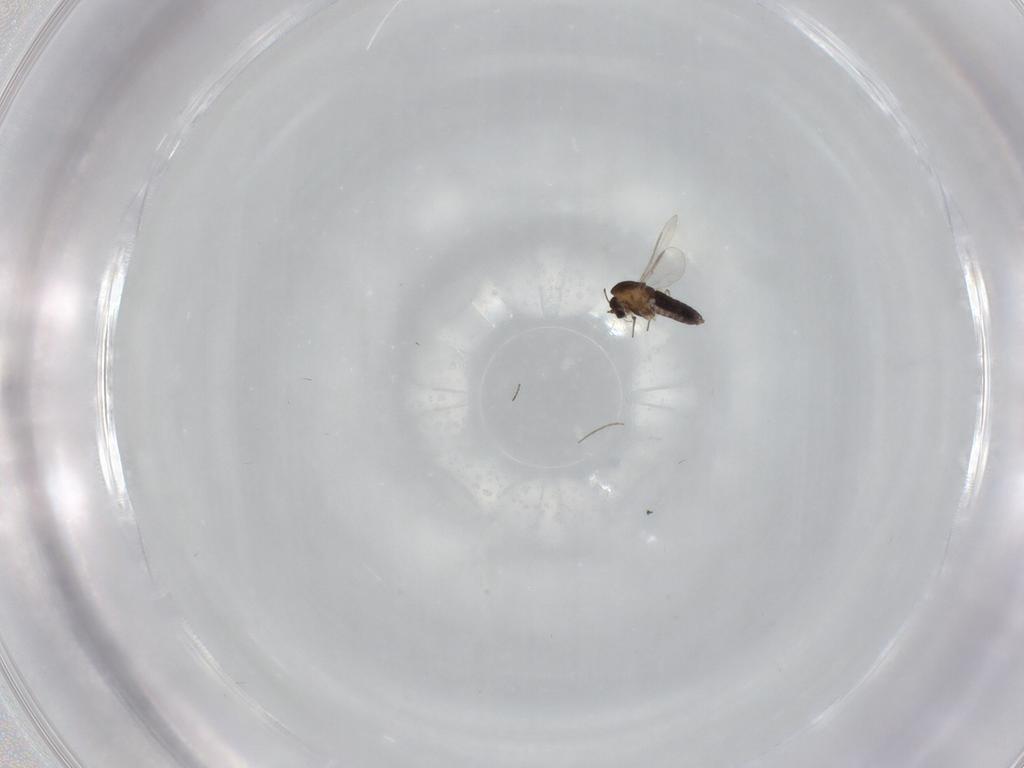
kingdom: Animalia
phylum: Arthropoda
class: Insecta
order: Diptera
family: Chironomidae
